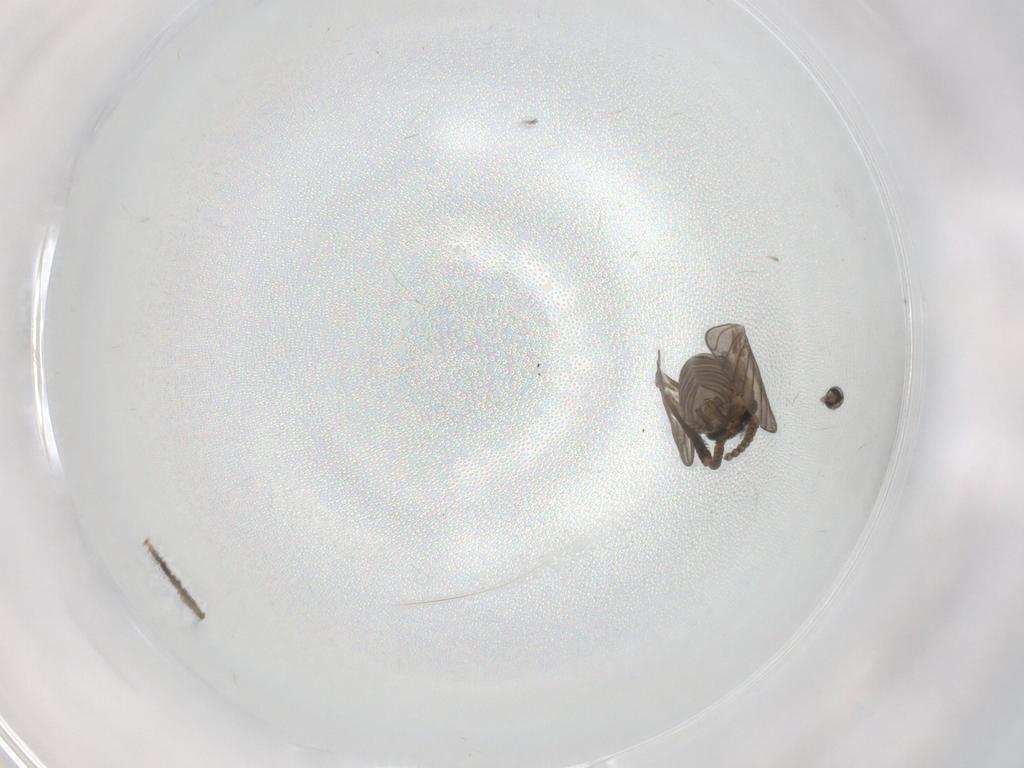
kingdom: Animalia
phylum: Arthropoda
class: Insecta
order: Diptera
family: Psychodidae
